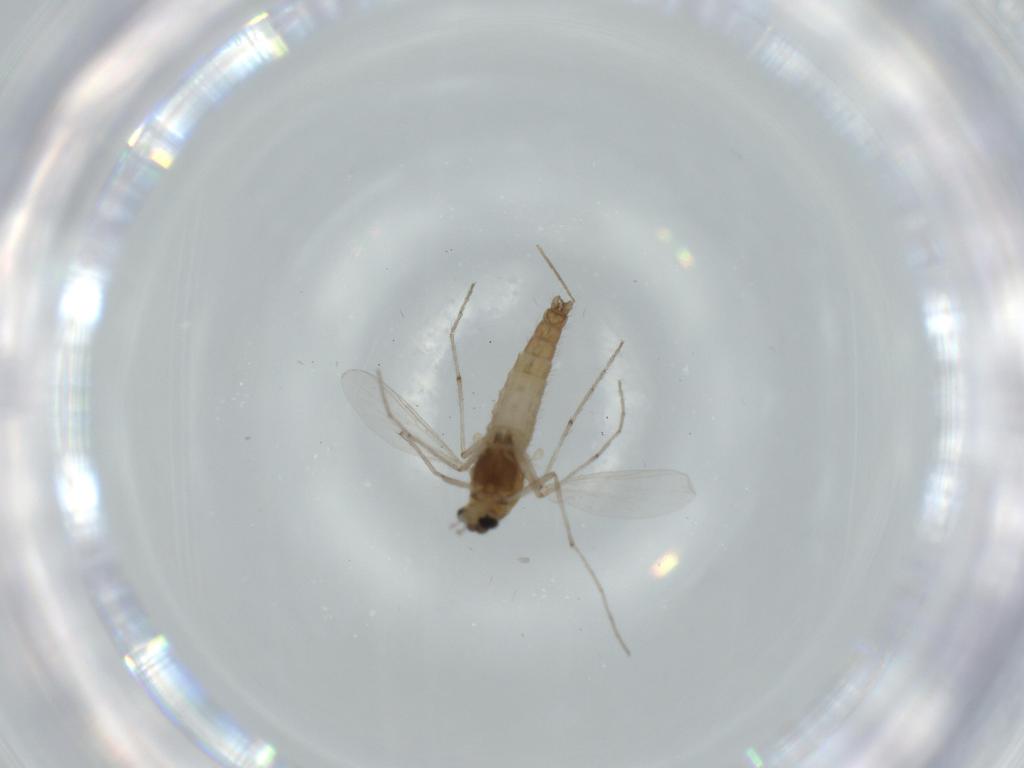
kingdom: Animalia
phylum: Arthropoda
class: Insecta
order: Diptera
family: Chironomidae
